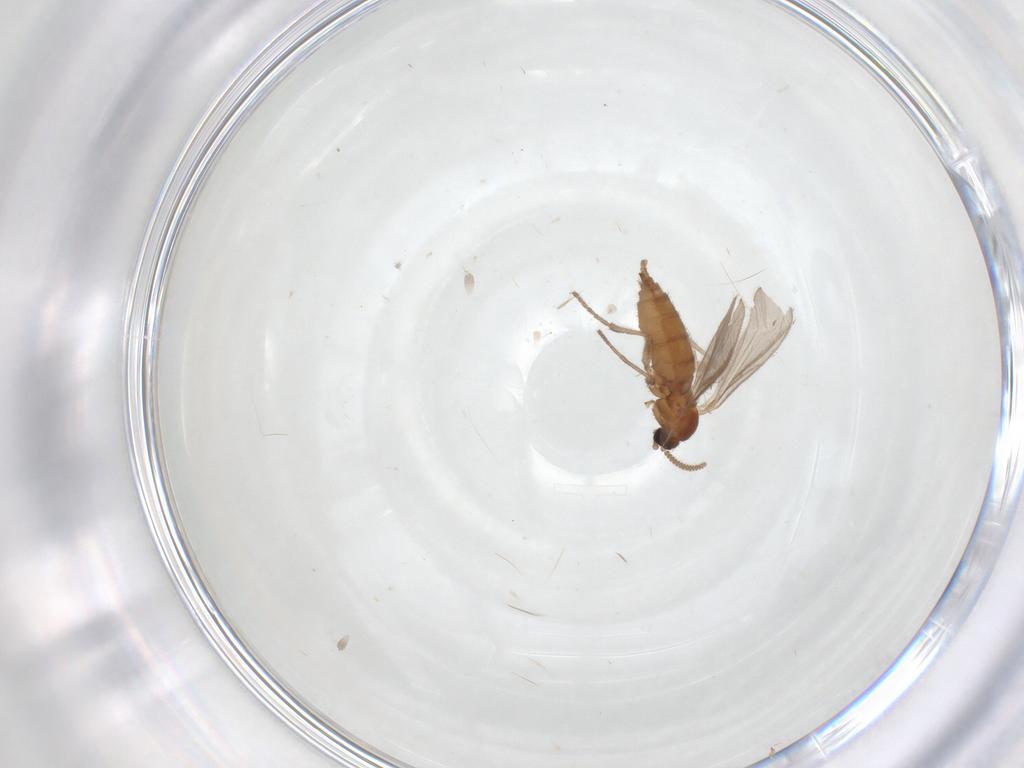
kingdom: Animalia
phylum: Arthropoda
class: Insecta
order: Diptera
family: Sciaridae
